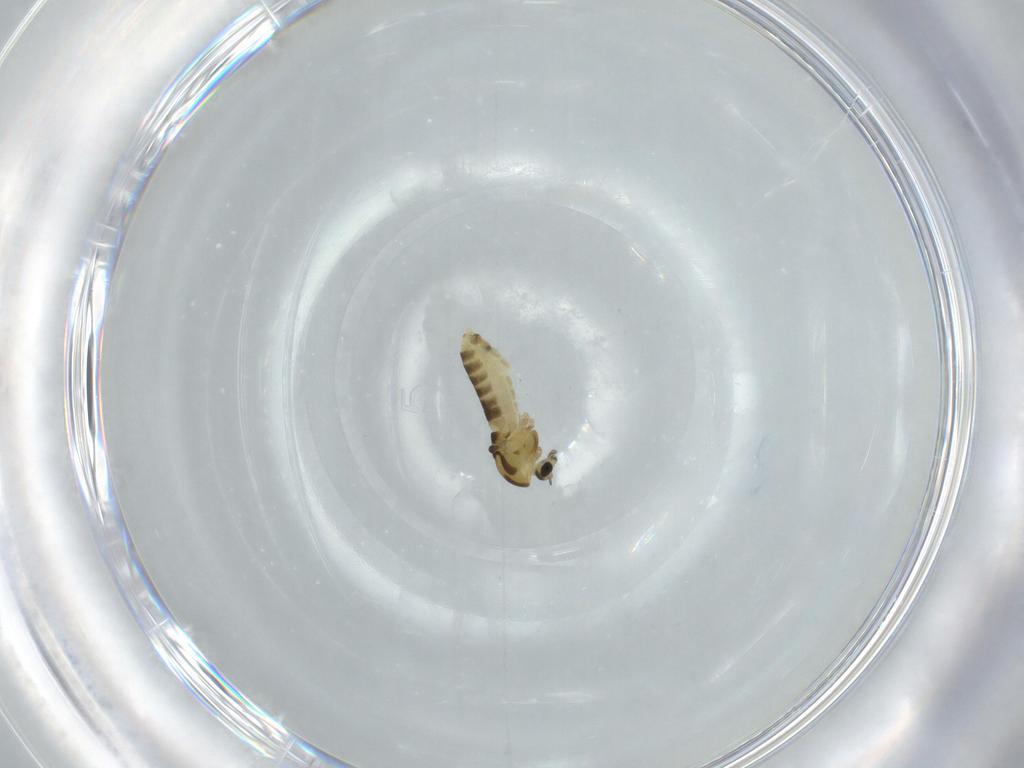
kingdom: Animalia
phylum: Arthropoda
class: Insecta
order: Diptera
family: Chironomidae
